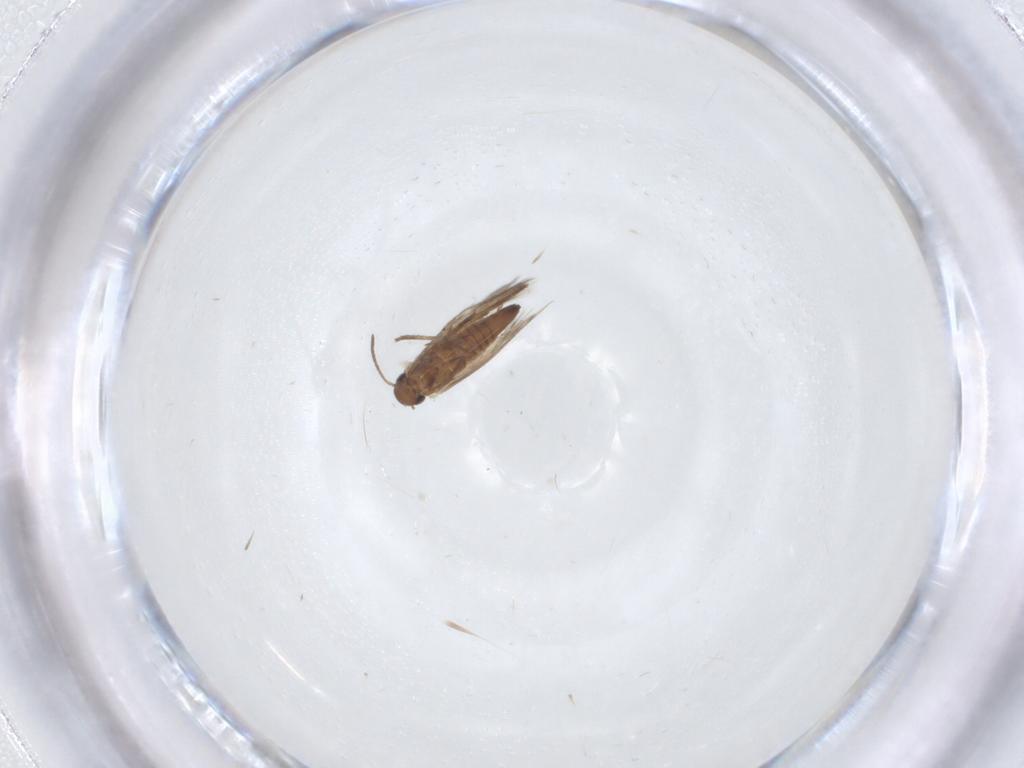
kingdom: Animalia
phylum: Arthropoda
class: Insecta
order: Lepidoptera
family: Heliozelidae
